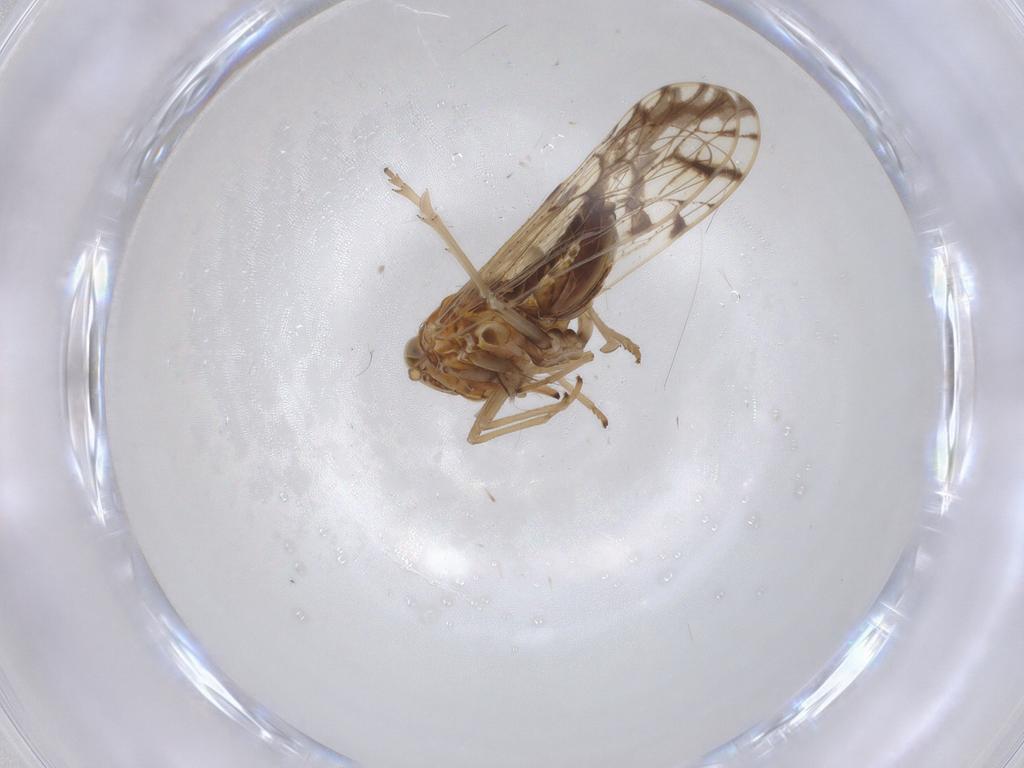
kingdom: Animalia
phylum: Arthropoda
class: Insecta
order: Hemiptera
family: Delphacidae
